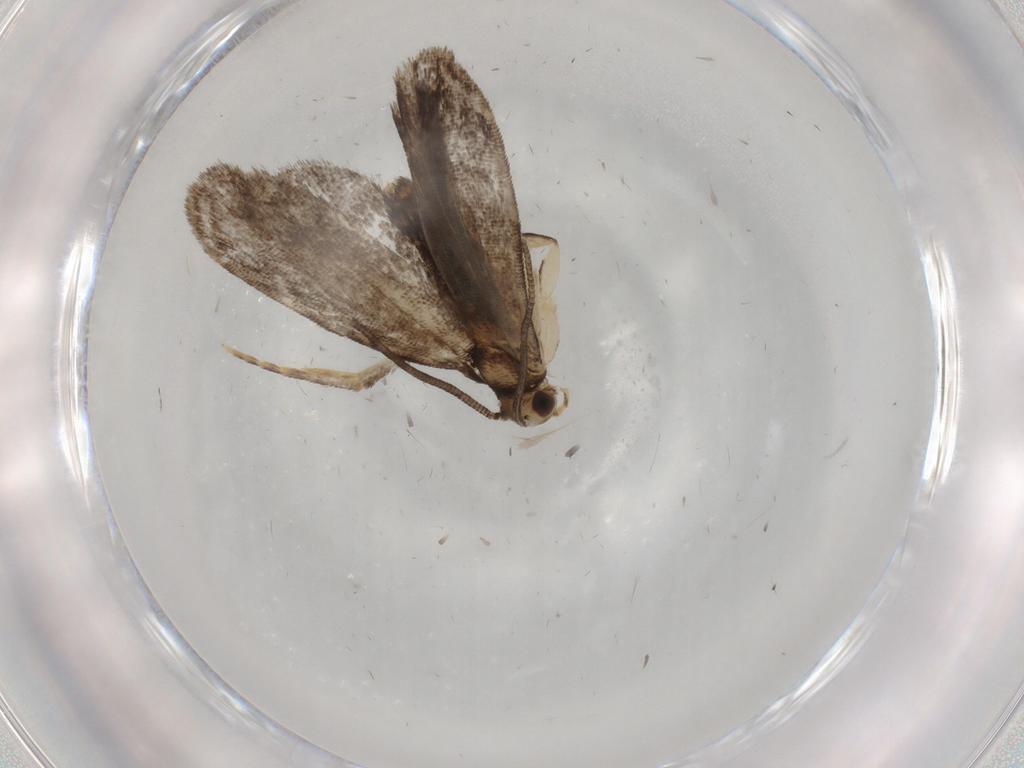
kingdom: Animalia
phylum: Arthropoda
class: Insecta
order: Lepidoptera
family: Dryadaulidae
